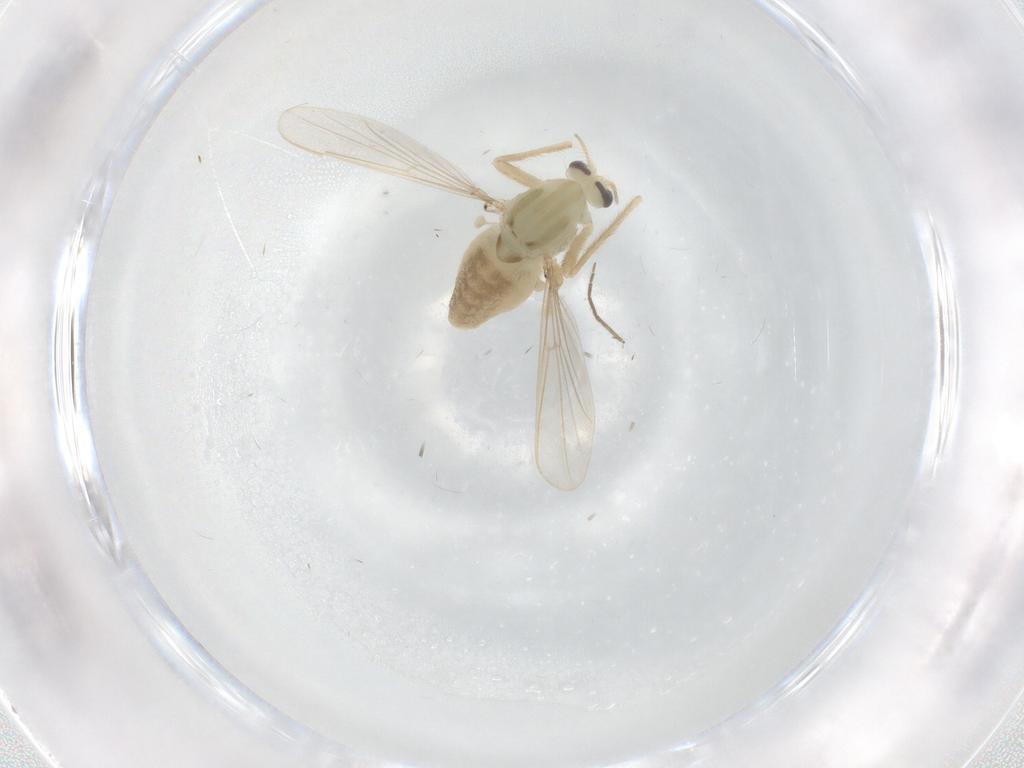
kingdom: Animalia
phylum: Arthropoda
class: Insecta
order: Diptera
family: Chironomidae
